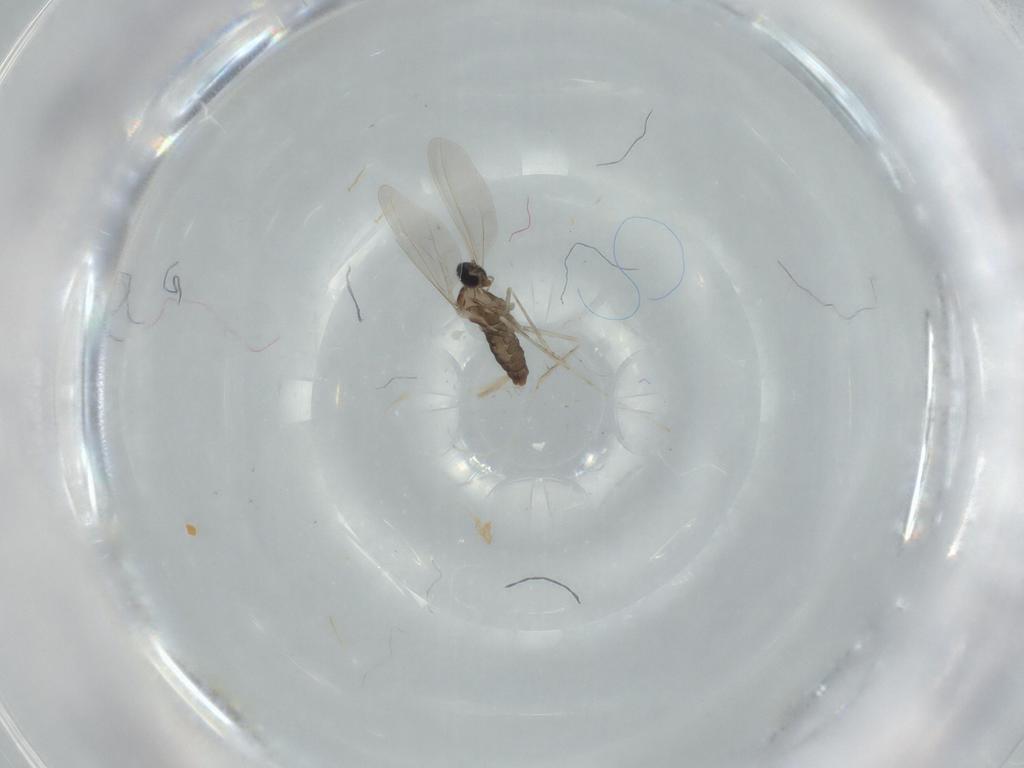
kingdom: Animalia
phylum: Arthropoda
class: Insecta
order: Diptera
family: Cecidomyiidae
